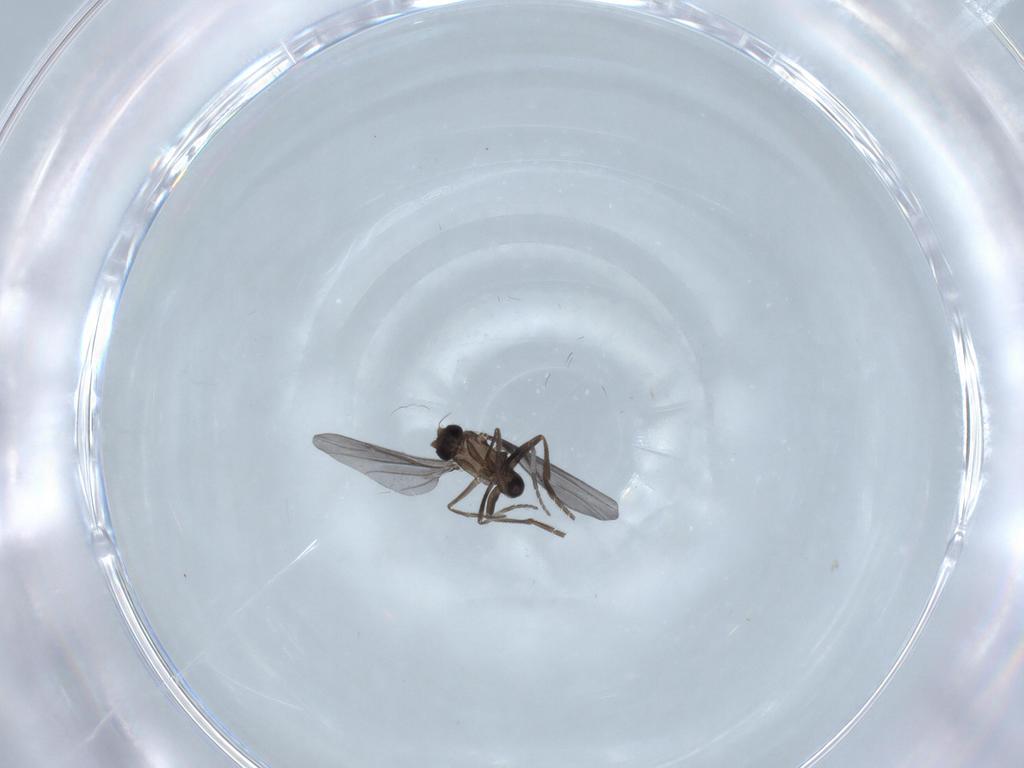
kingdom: Animalia
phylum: Arthropoda
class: Insecta
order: Diptera
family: Phoridae
